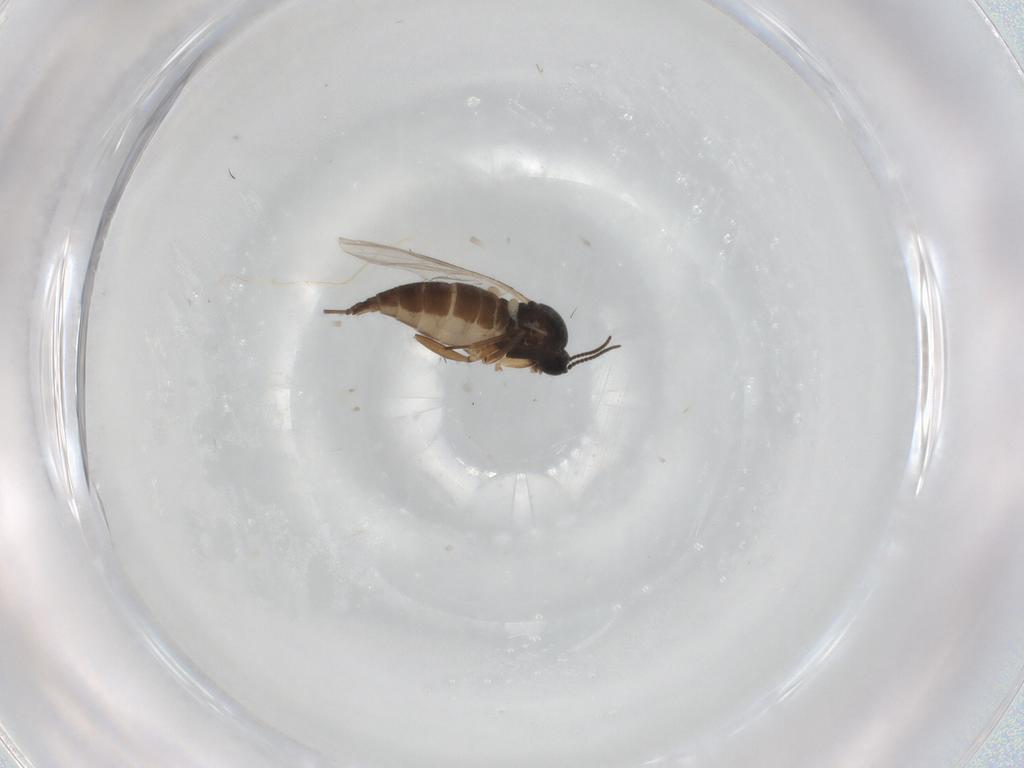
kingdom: Animalia
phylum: Arthropoda
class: Insecta
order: Diptera
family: Sciaridae
